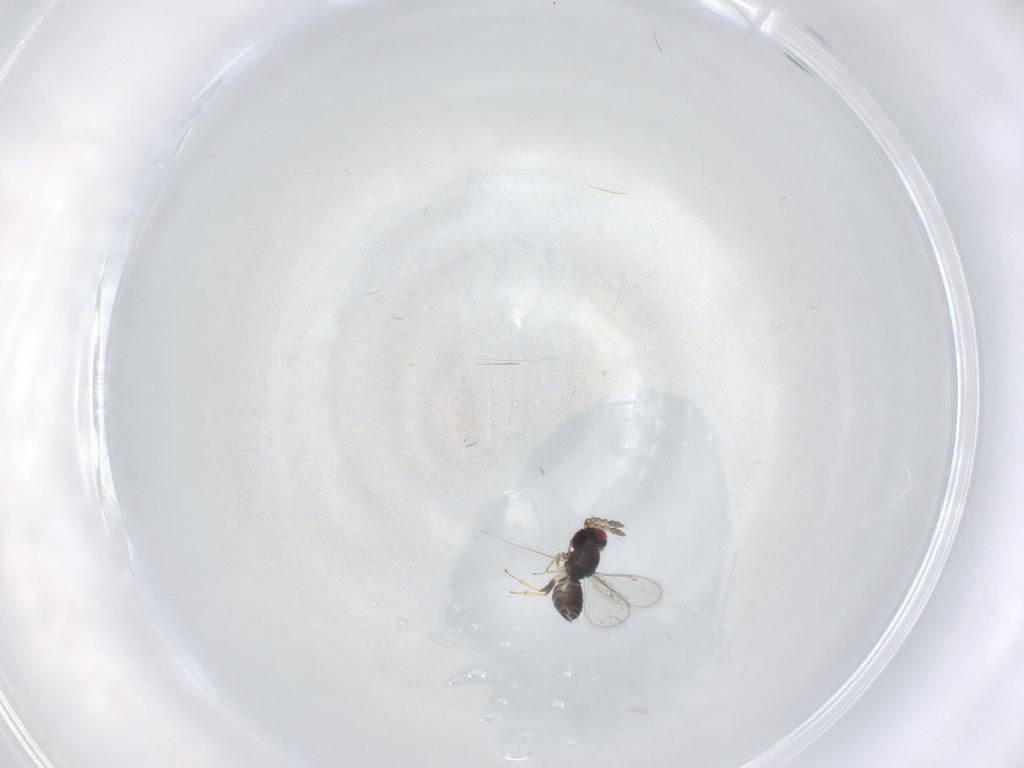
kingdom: Animalia
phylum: Arthropoda
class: Insecta
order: Hymenoptera
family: Eulophidae
